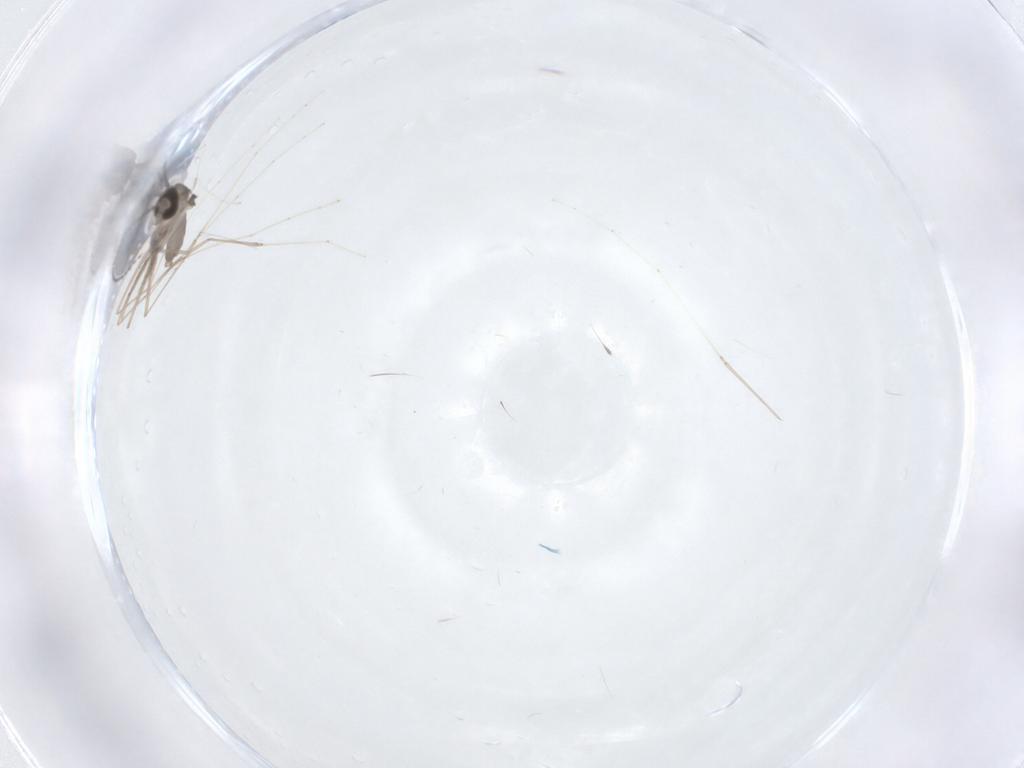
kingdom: Animalia
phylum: Arthropoda
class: Insecta
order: Diptera
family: Cecidomyiidae
